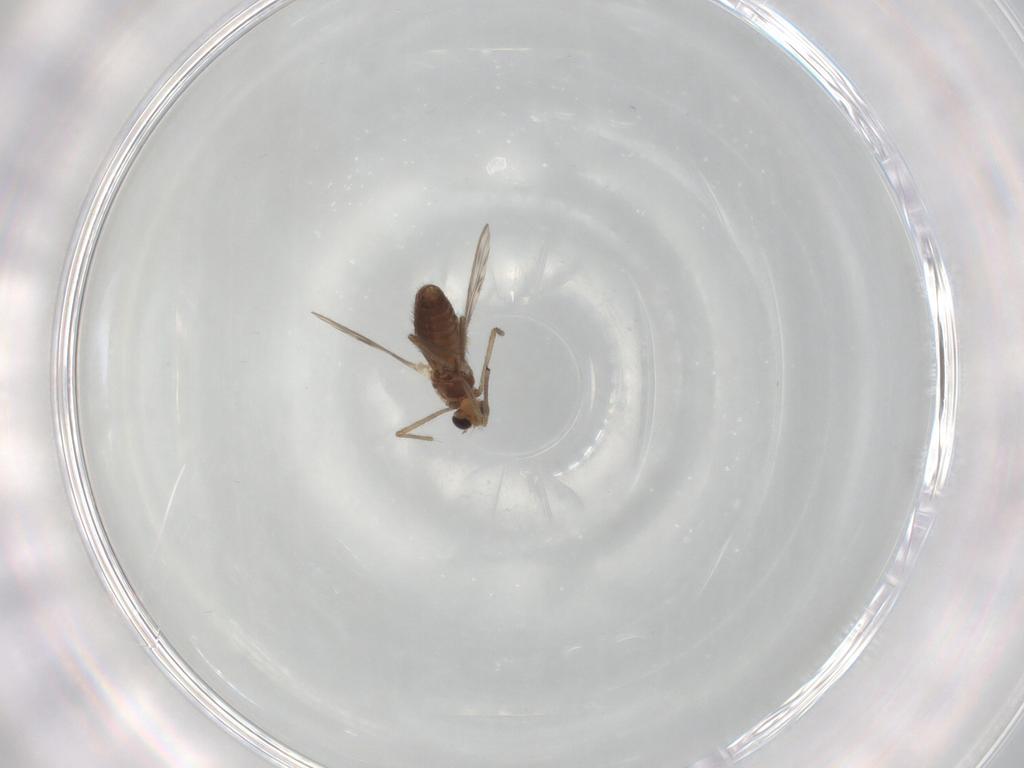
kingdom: Animalia
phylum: Arthropoda
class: Insecta
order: Diptera
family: Chironomidae
